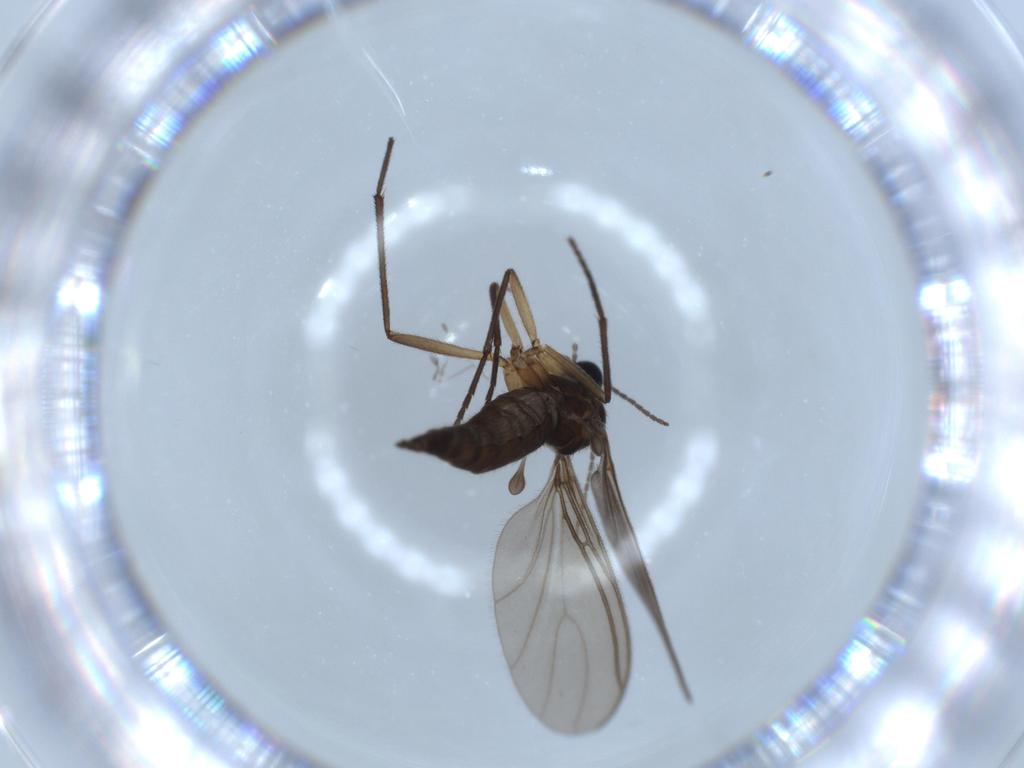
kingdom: Animalia
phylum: Arthropoda
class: Insecta
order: Diptera
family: Sciaridae
